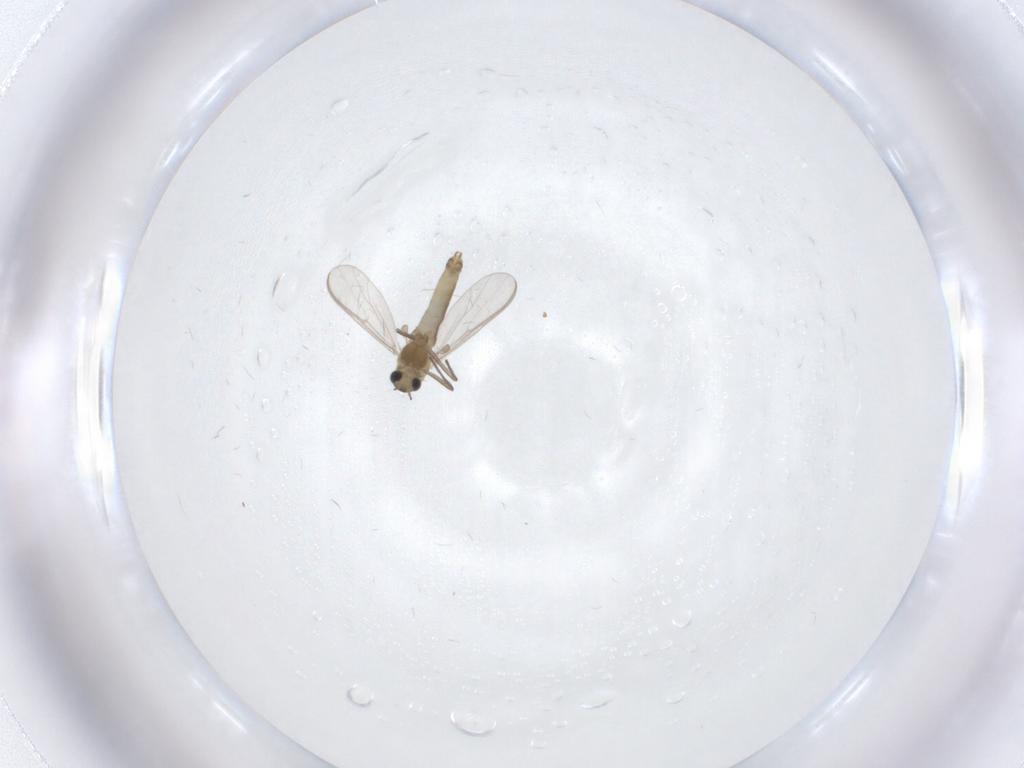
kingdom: Animalia
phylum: Arthropoda
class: Insecta
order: Diptera
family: Chironomidae
